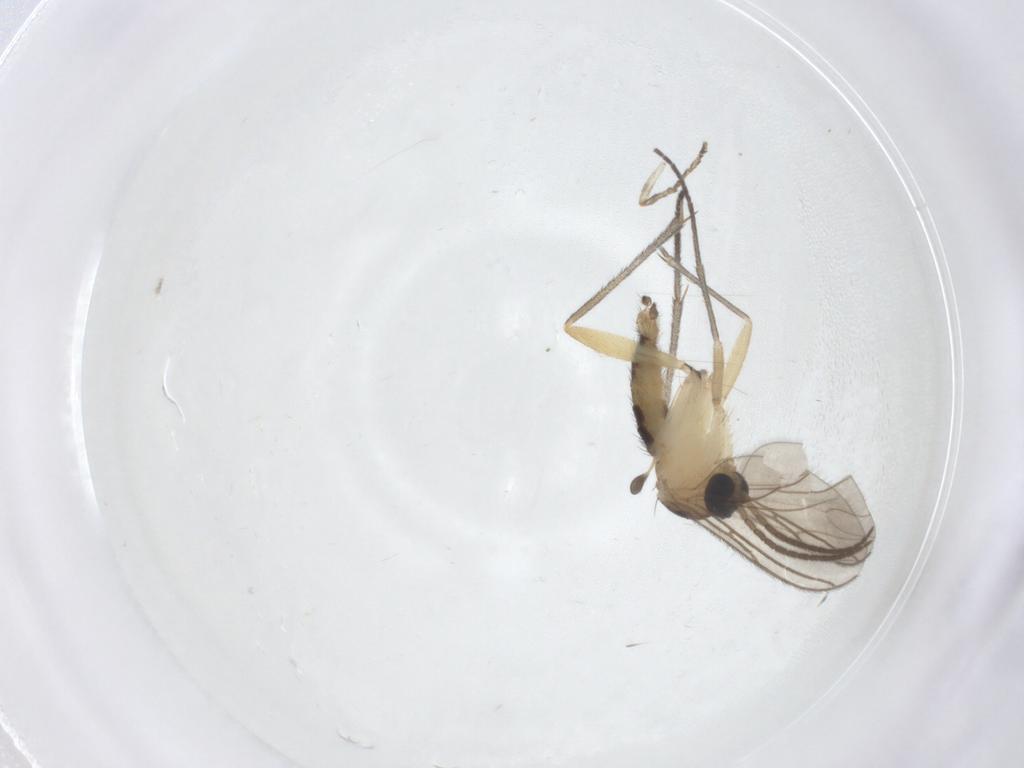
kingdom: Animalia
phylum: Arthropoda
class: Insecta
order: Diptera
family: Sciaridae
